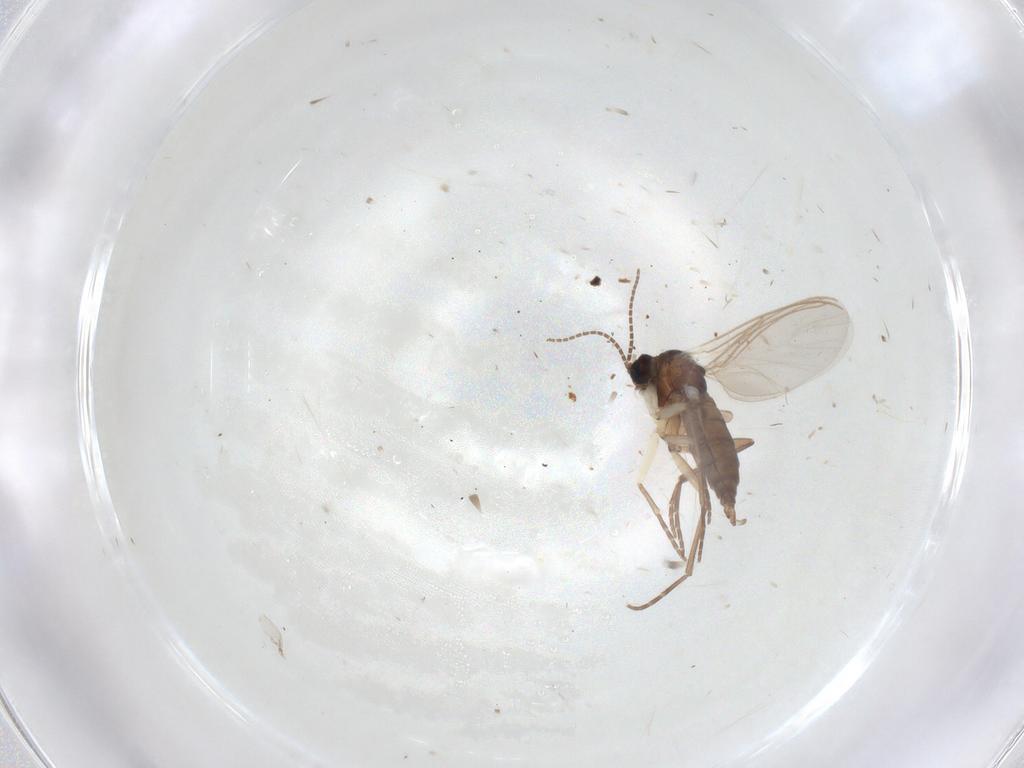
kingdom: Animalia
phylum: Arthropoda
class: Insecta
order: Diptera
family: Sciaridae
